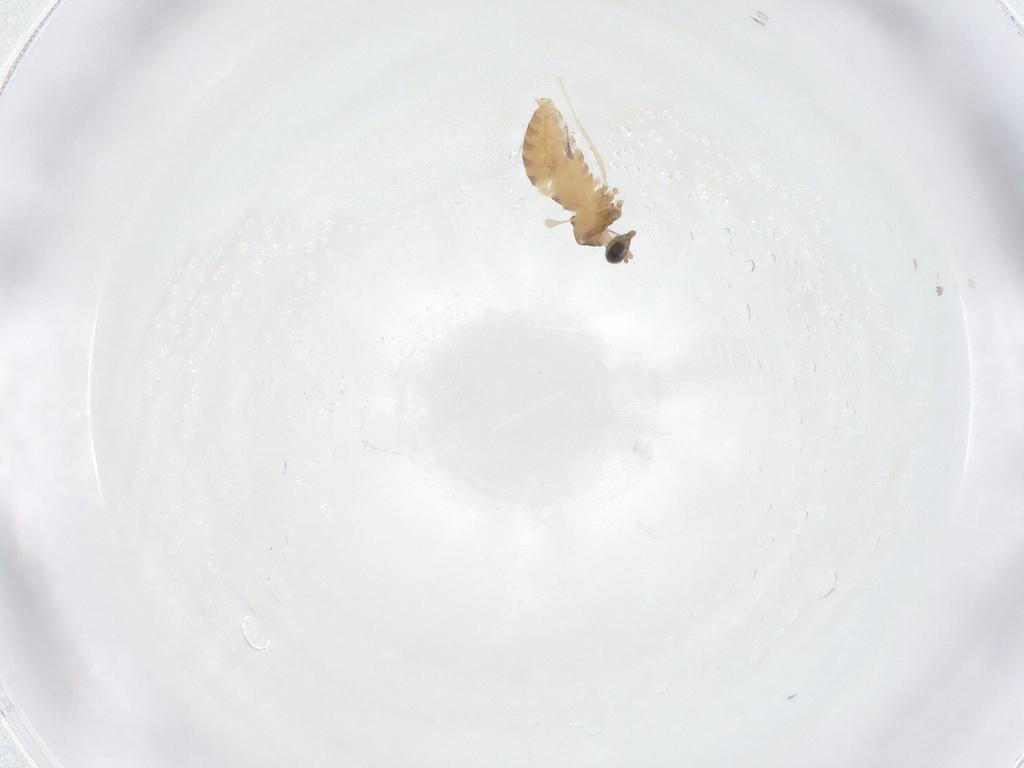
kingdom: Animalia
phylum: Arthropoda
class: Insecta
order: Diptera
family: Cecidomyiidae
